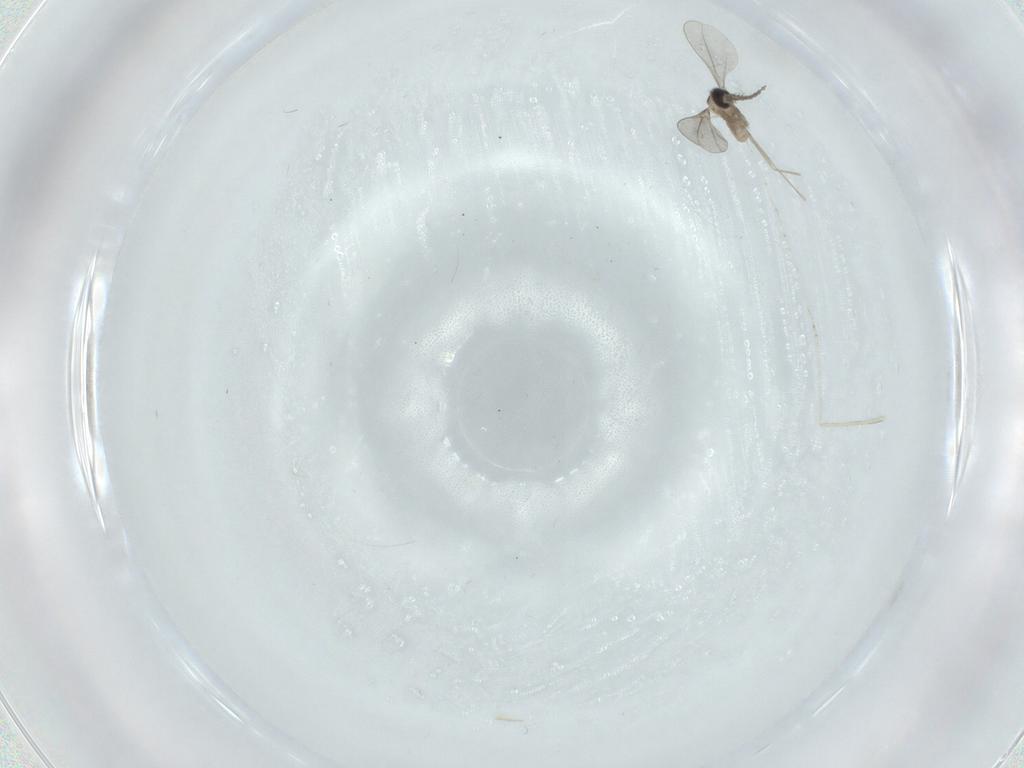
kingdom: Animalia
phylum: Arthropoda
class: Insecta
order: Diptera
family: Cecidomyiidae
